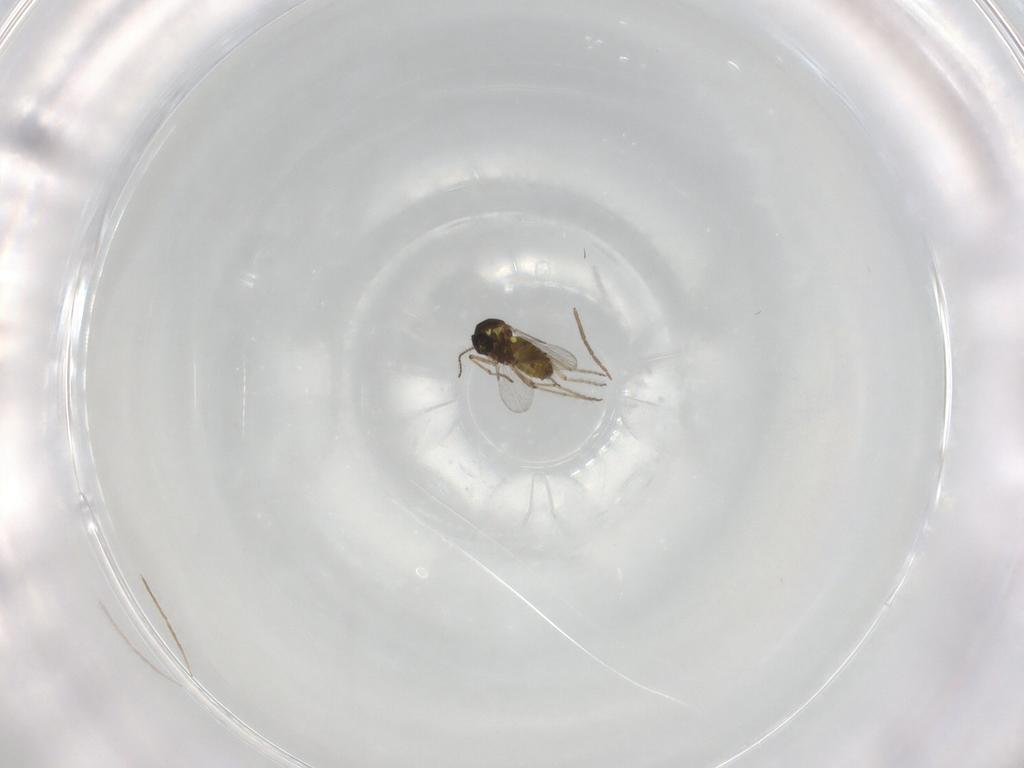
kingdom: Animalia
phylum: Arthropoda
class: Insecta
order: Diptera
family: Ceratopogonidae
